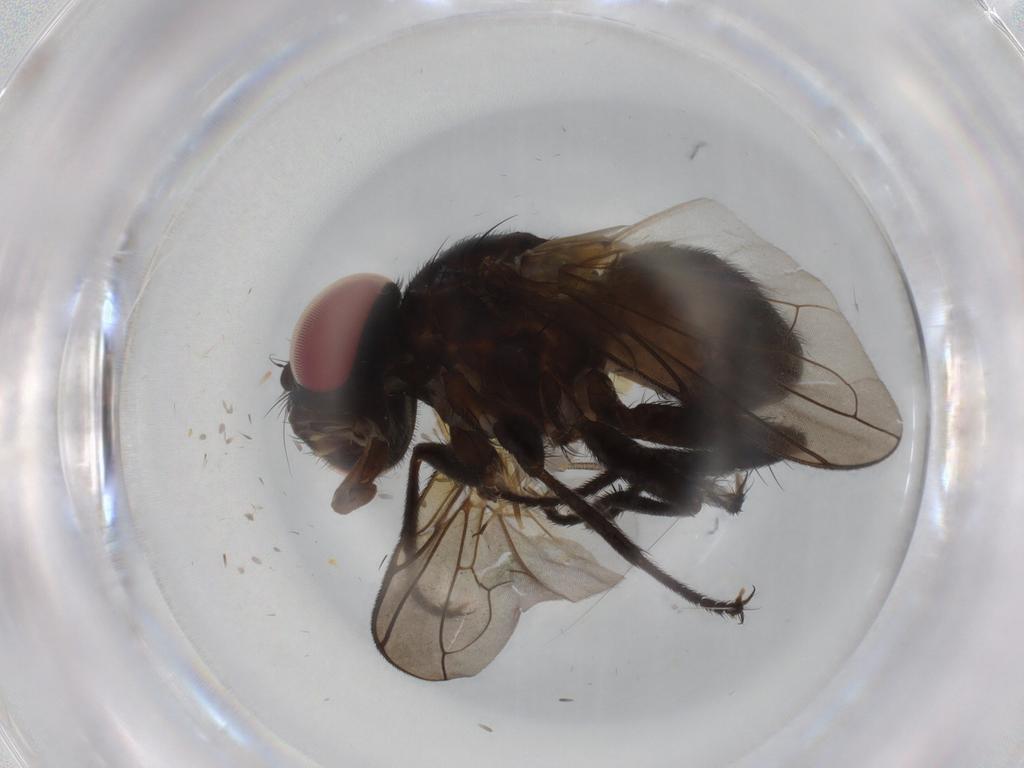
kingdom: Animalia
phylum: Arthropoda
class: Insecta
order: Diptera
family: Tachinidae
